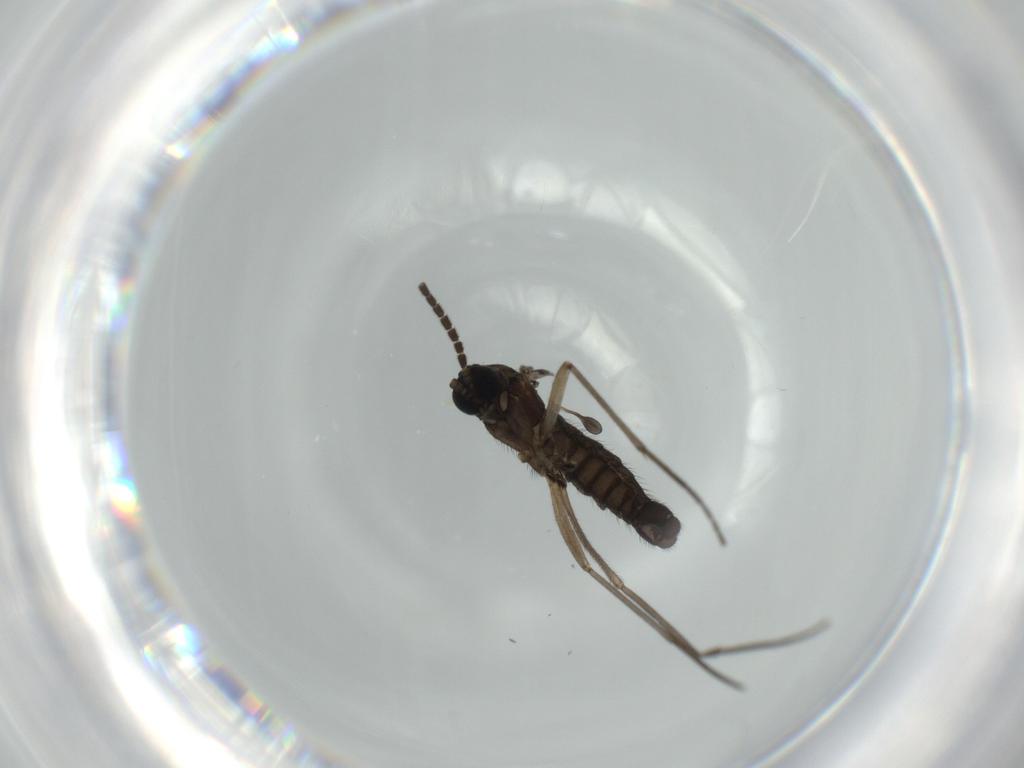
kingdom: Animalia
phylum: Arthropoda
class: Insecta
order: Diptera
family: Sciaridae
